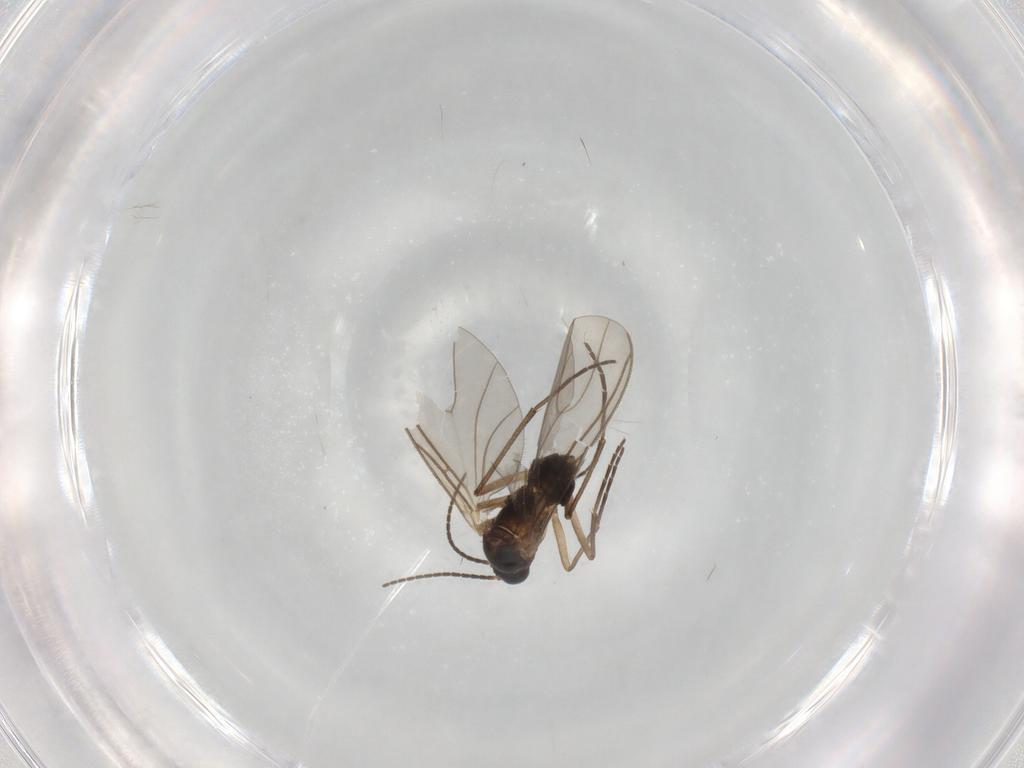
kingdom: Animalia
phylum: Arthropoda
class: Insecta
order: Diptera
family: Sciaridae
